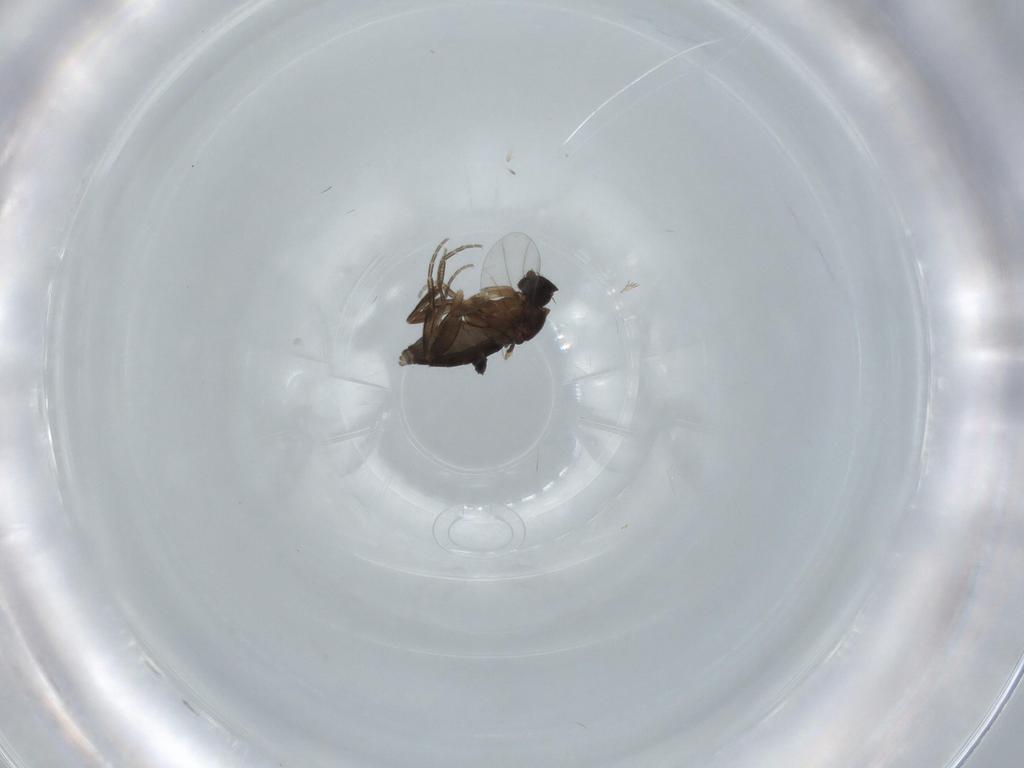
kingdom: Animalia
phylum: Arthropoda
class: Insecta
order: Diptera
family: Phoridae
